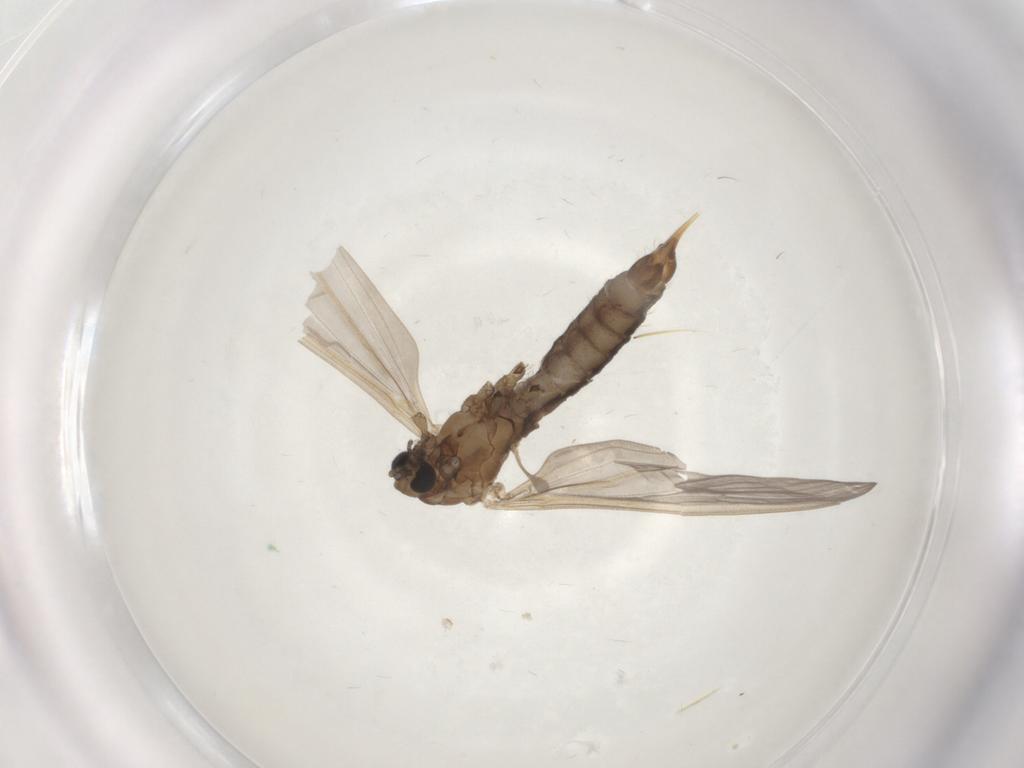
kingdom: Animalia
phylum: Arthropoda
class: Insecta
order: Diptera
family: Limoniidae
